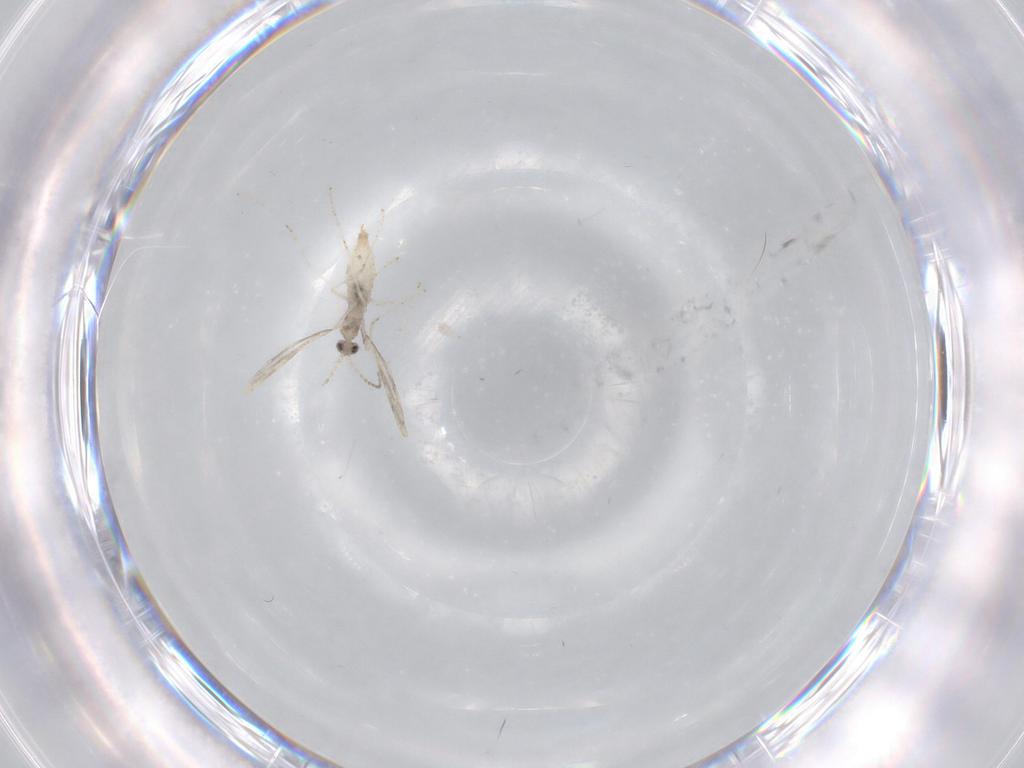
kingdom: Animalia
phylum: Arthropoda
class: Insecta
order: Diptera
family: Cecidomyiidae
